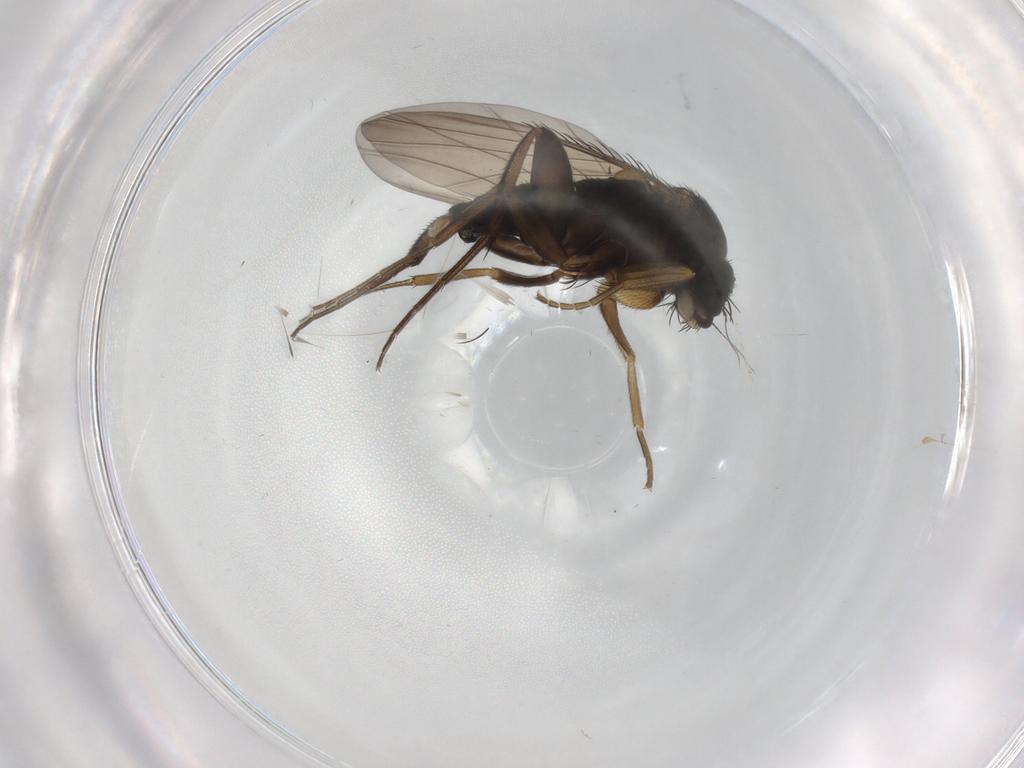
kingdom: Animalia
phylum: Arthropoda
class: Insecta
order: Diptera
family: Phoridae
